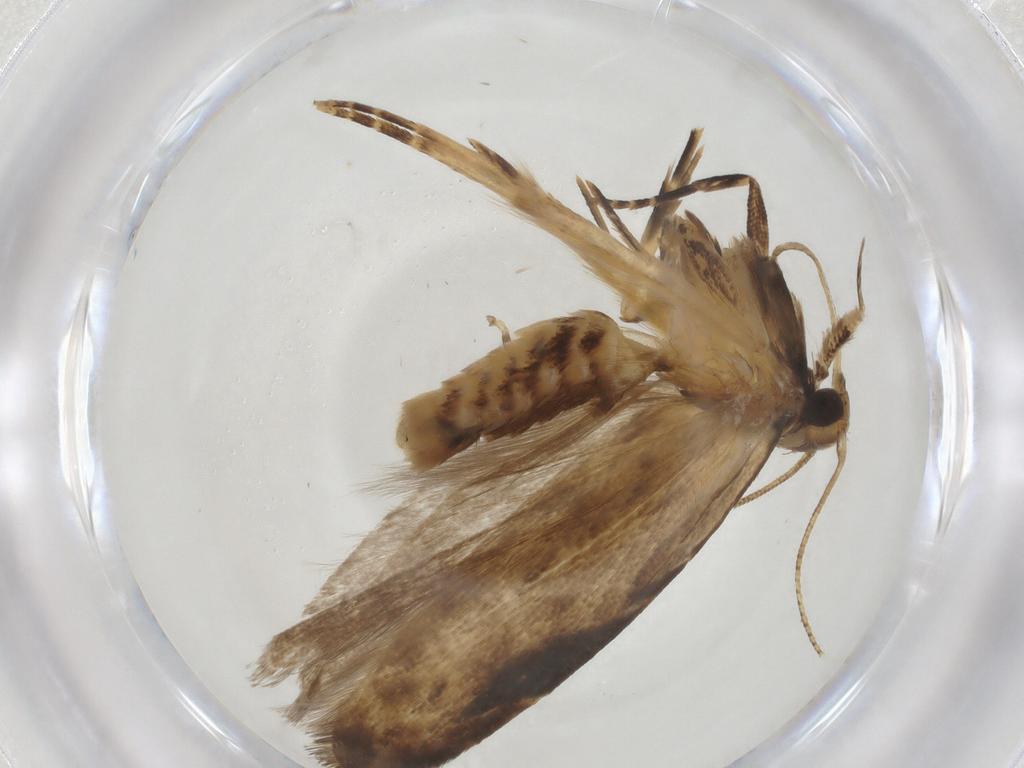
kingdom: Animalia
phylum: Arthropoda
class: Insecta
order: Lepidoptera
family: Gelechiidae
